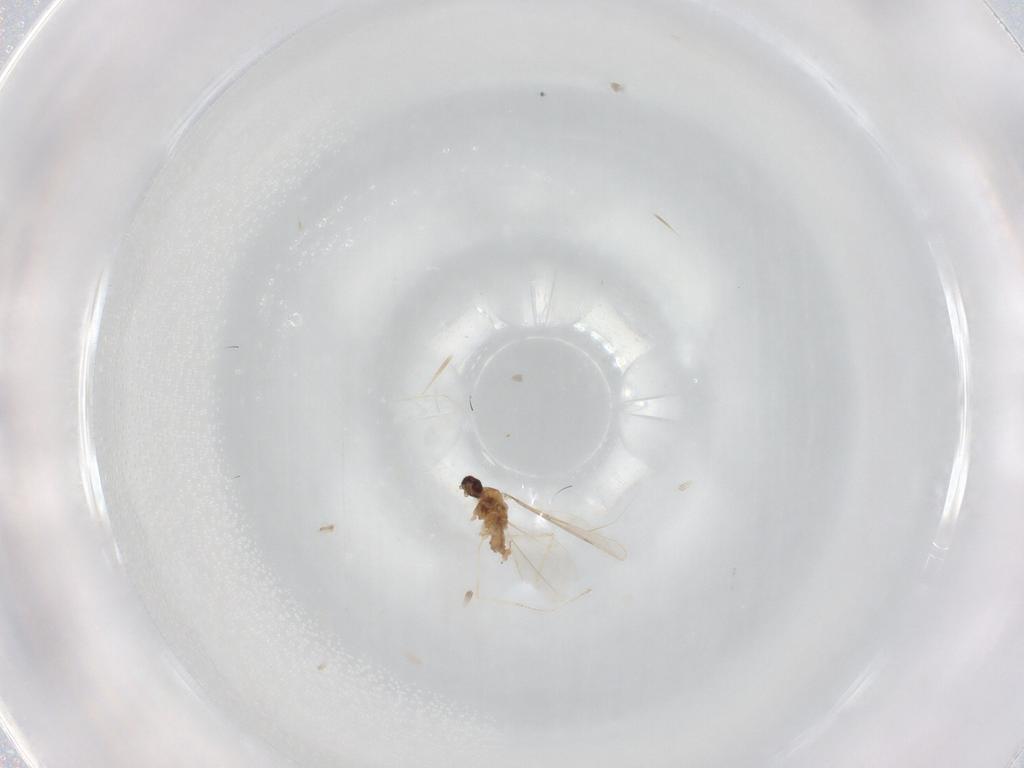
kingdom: Animalia
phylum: Arthropoda
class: Insecta
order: Diptera
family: Cecidomyiidae
